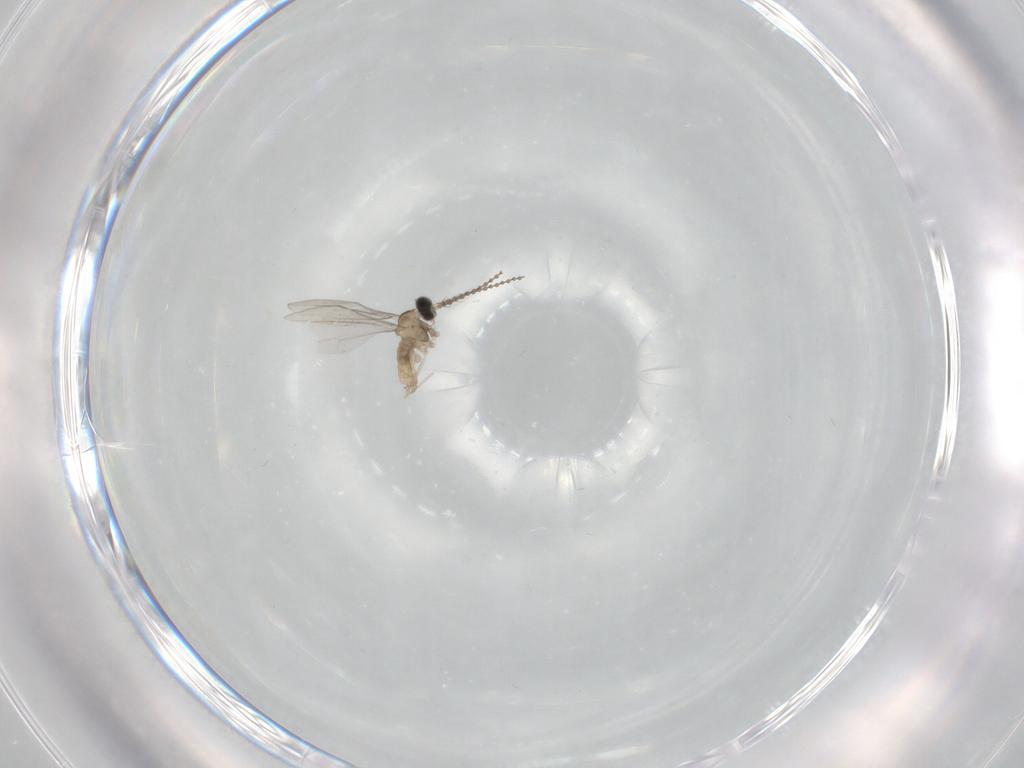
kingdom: Animalia
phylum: Arthropoda
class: Insecta
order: Diptera
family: Cecidomyiidae
